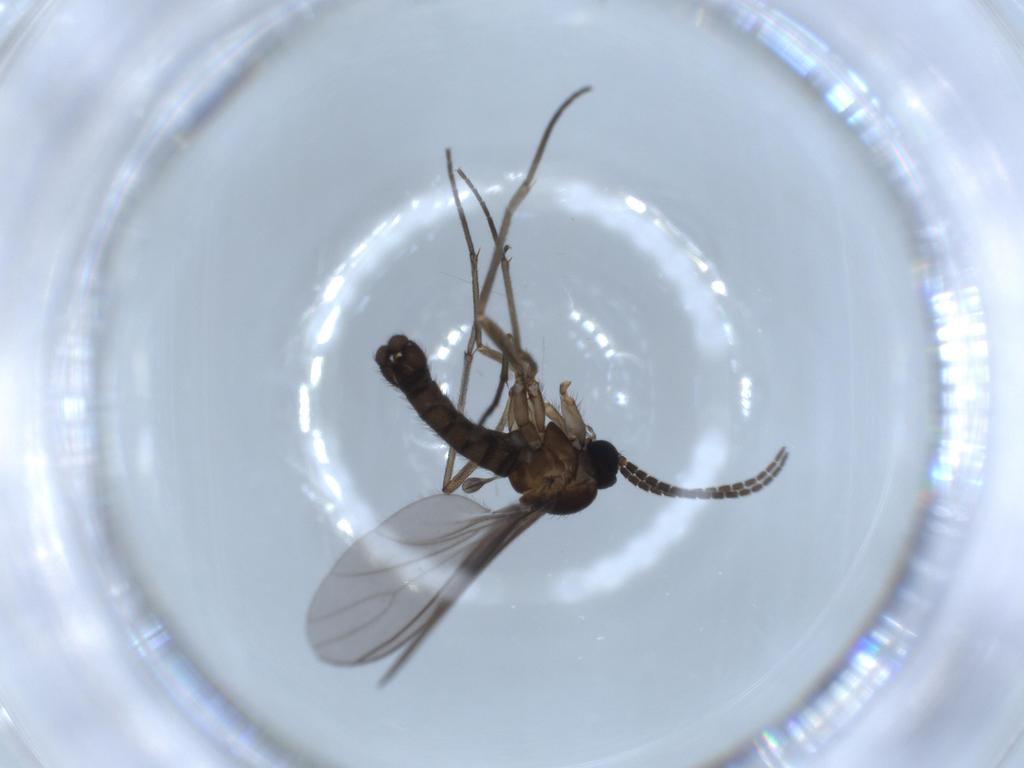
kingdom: Animalia
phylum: Arthropoda
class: Insecta
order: Diptera
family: Sciaridae
